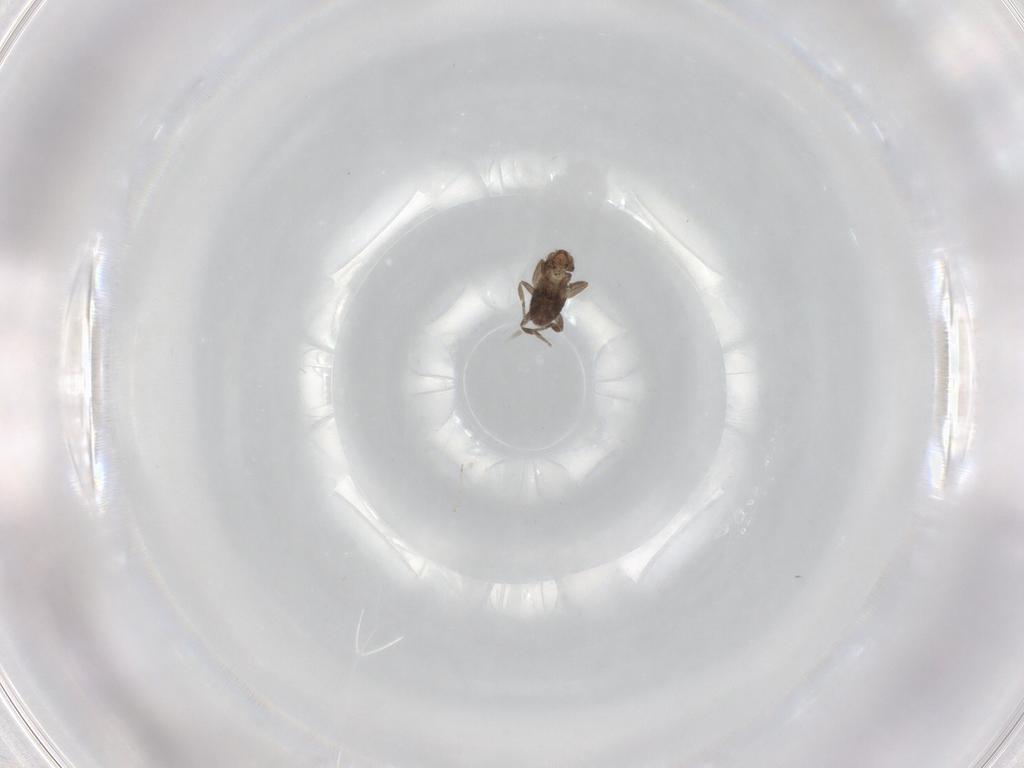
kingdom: Animalia
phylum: Arthropoda
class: Insecta
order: Diptera
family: Phoridae
